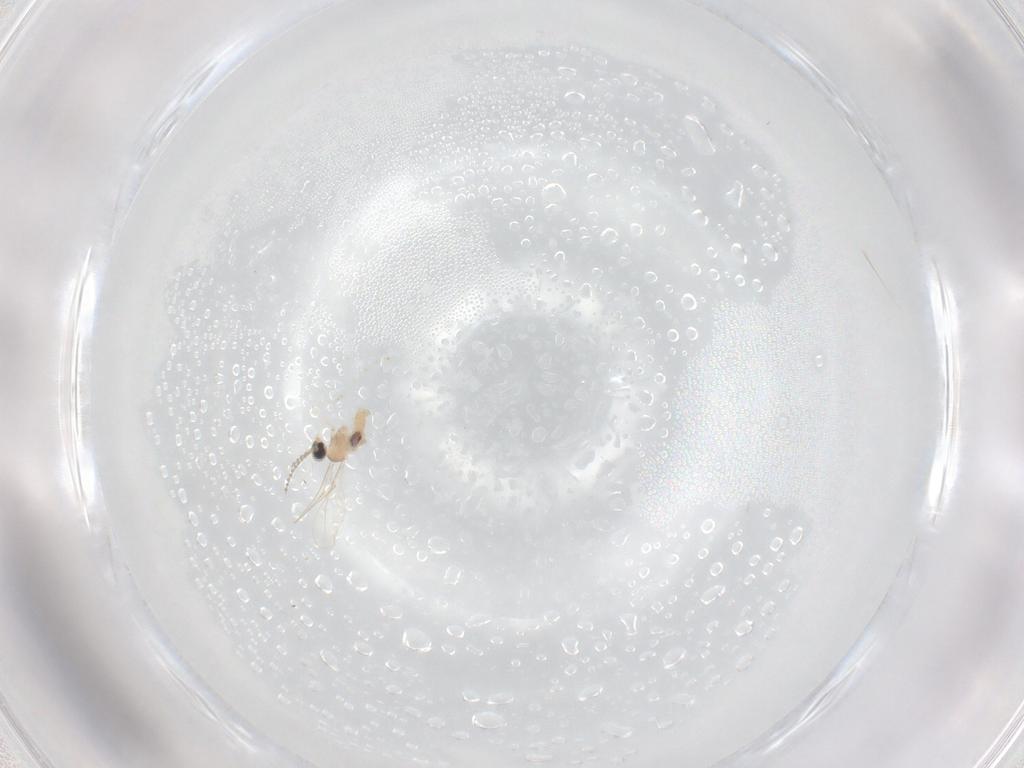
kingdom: Animalia
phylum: Arthropoda
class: Insecta
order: Diptera
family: Cecidomyiidae
